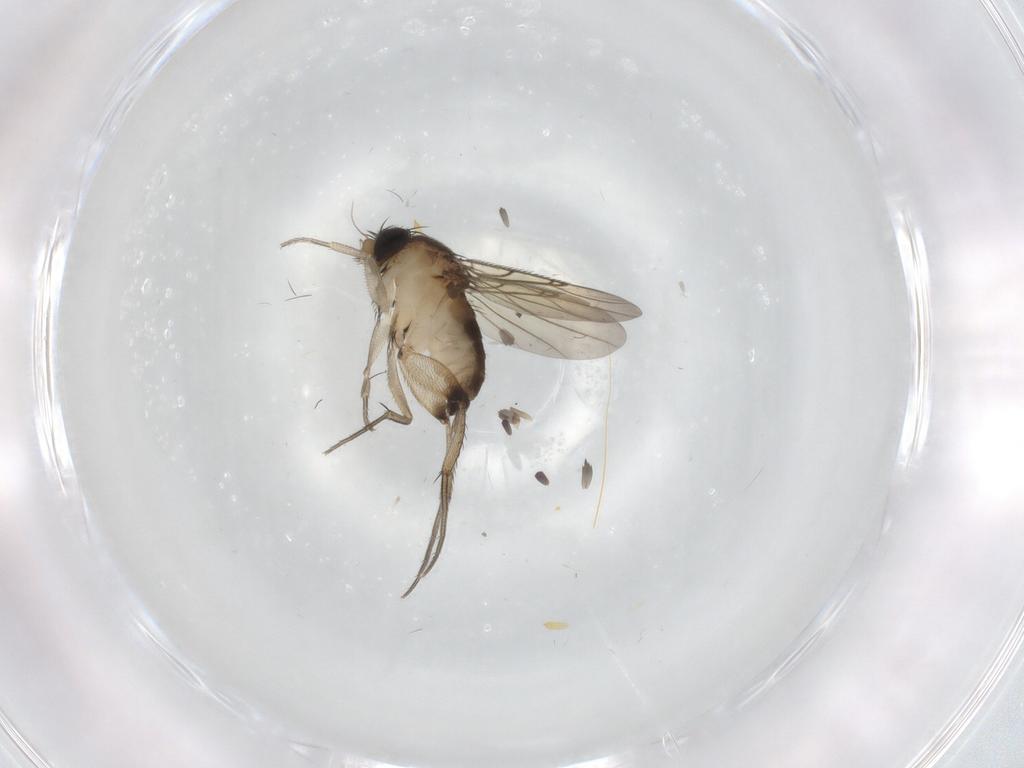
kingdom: Animalia
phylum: Arthropoda
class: Insecta
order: Diptera
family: Phoridae
